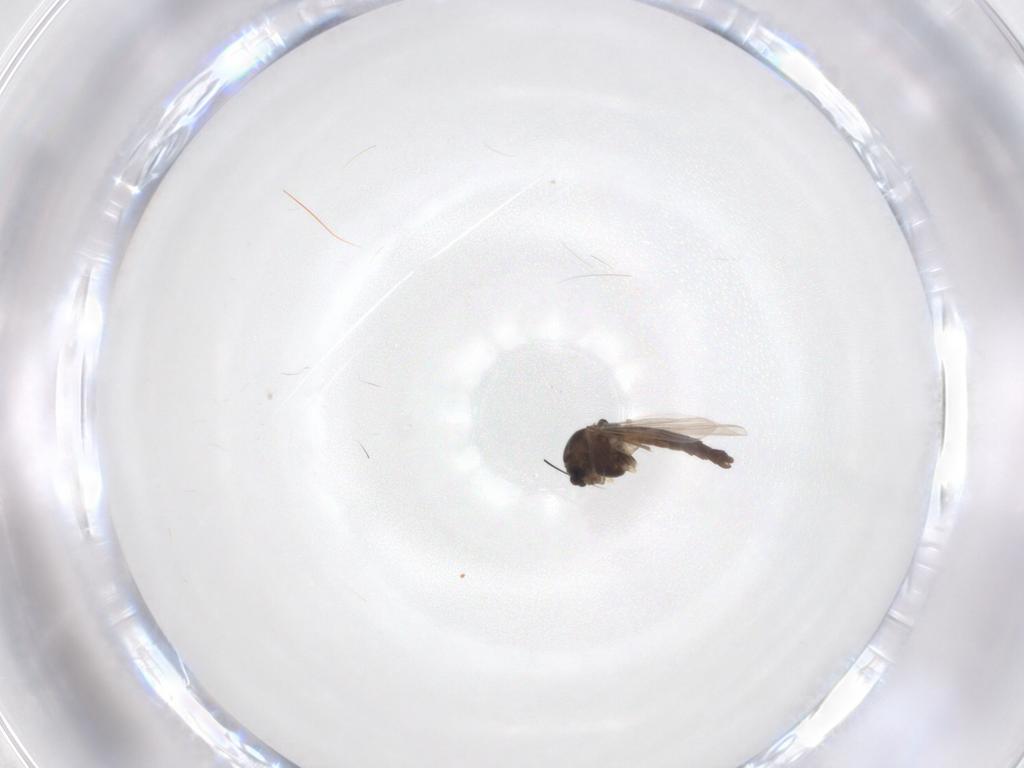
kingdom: Animalia
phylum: Arthropoda
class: Insecta
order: Diptera
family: Chironomidae
